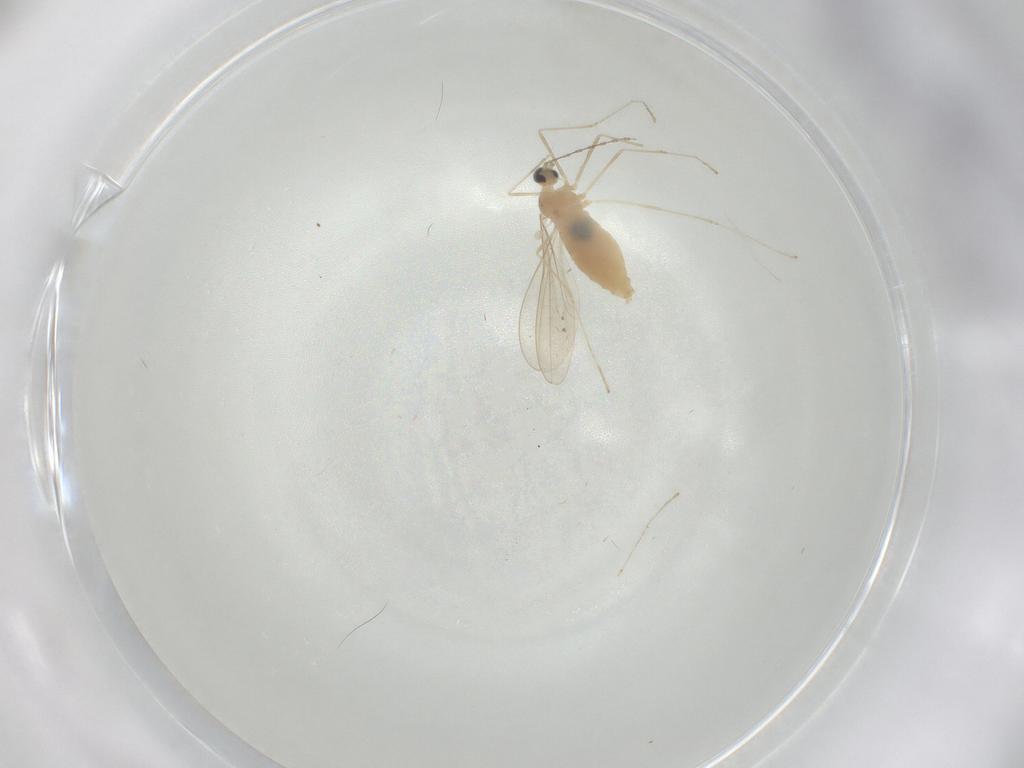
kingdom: Animalia
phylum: Arthropoda
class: Insecta
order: Diptera
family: Cecidomyiidae
